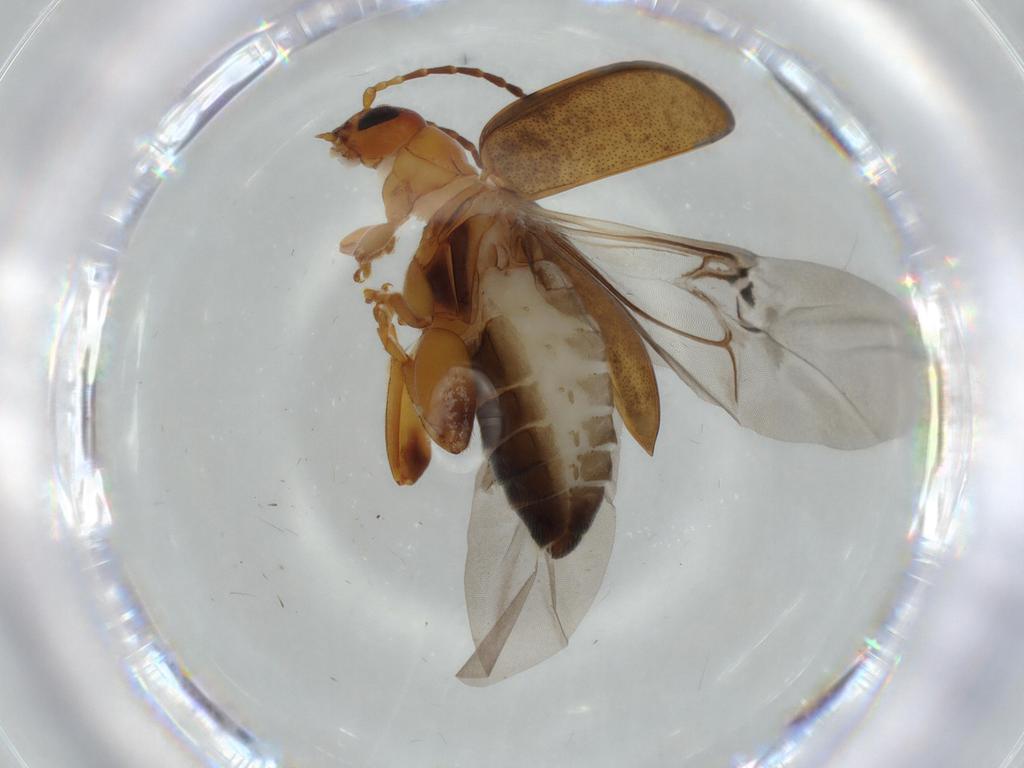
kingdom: Animalia
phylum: Arthropoda
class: Insecta
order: Coleoptera
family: Chrysomelidae
